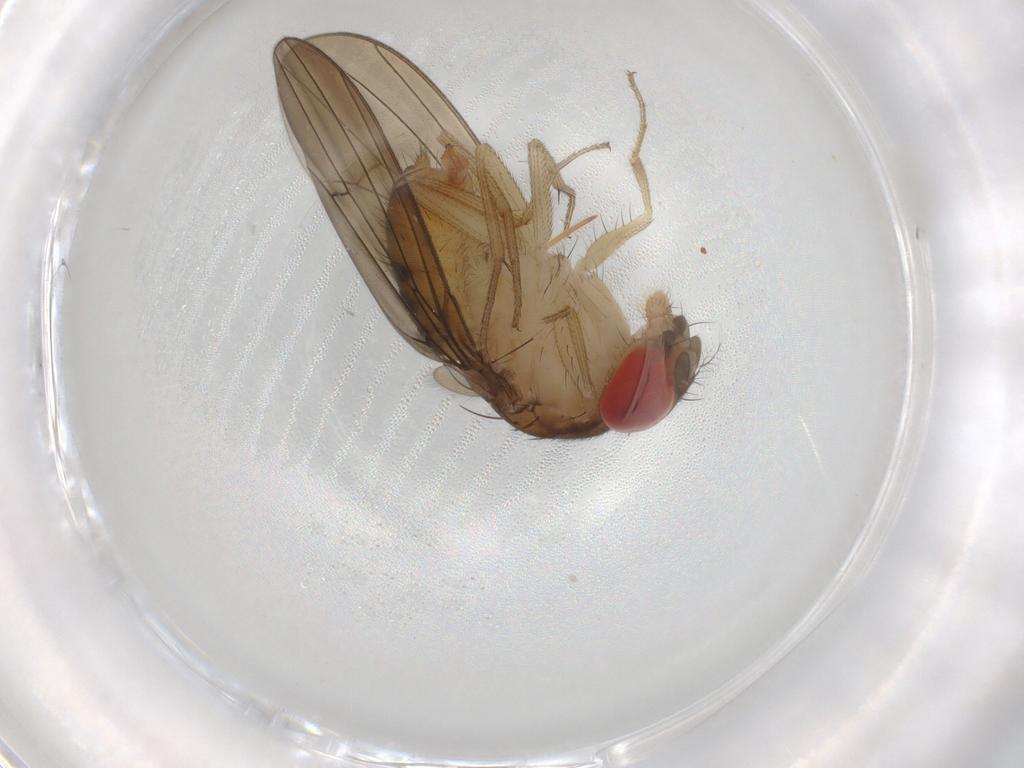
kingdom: Animalia
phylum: Arthropoda
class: Insecta
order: Diptera
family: Drosophilidae
